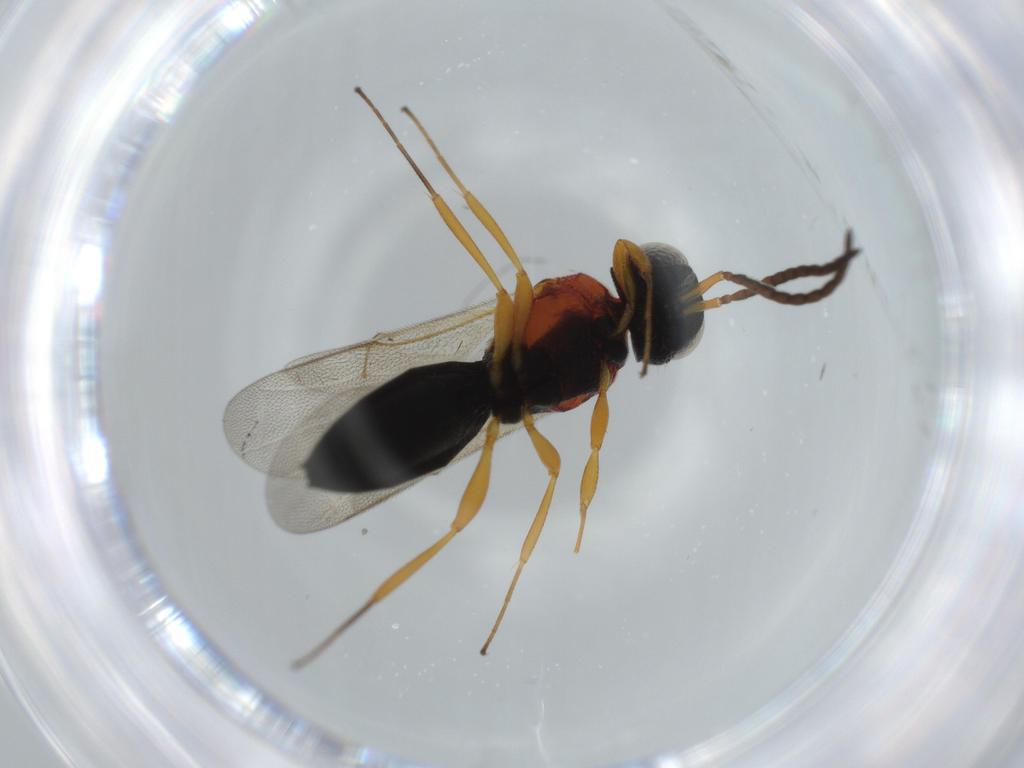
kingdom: Animalia
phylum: Arthropoda
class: Insecta
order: Hymenoptera
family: Scelionidae
